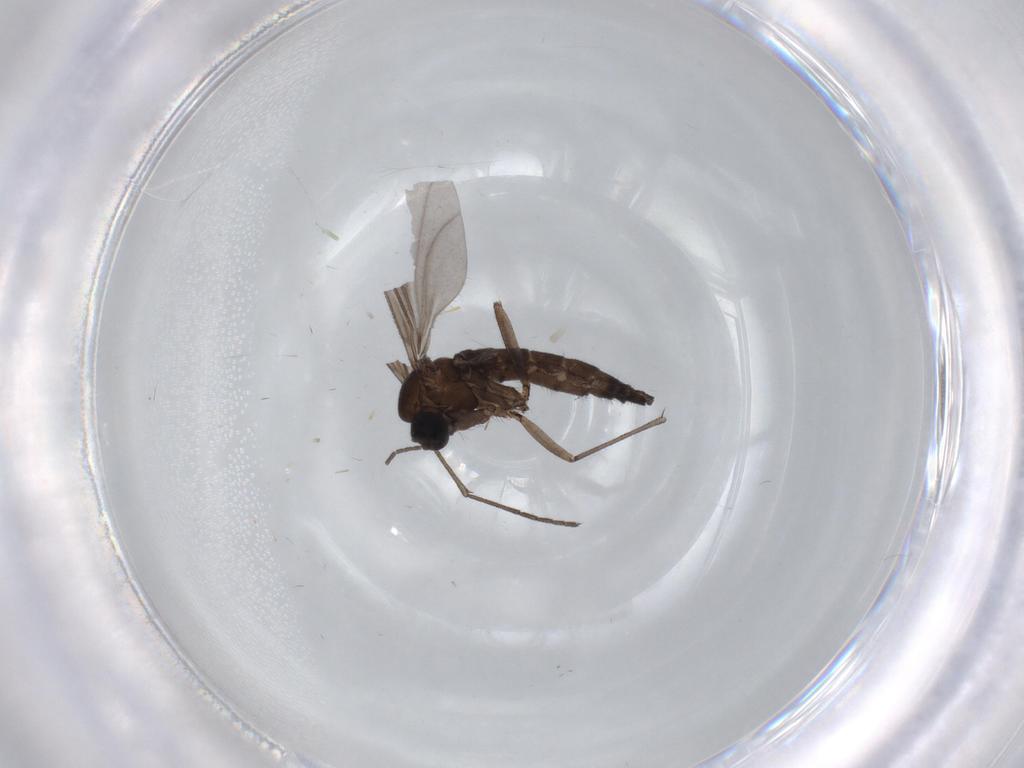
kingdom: Animalia
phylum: Arthropoda
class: Insecta
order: Diptera
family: Sciaridae
